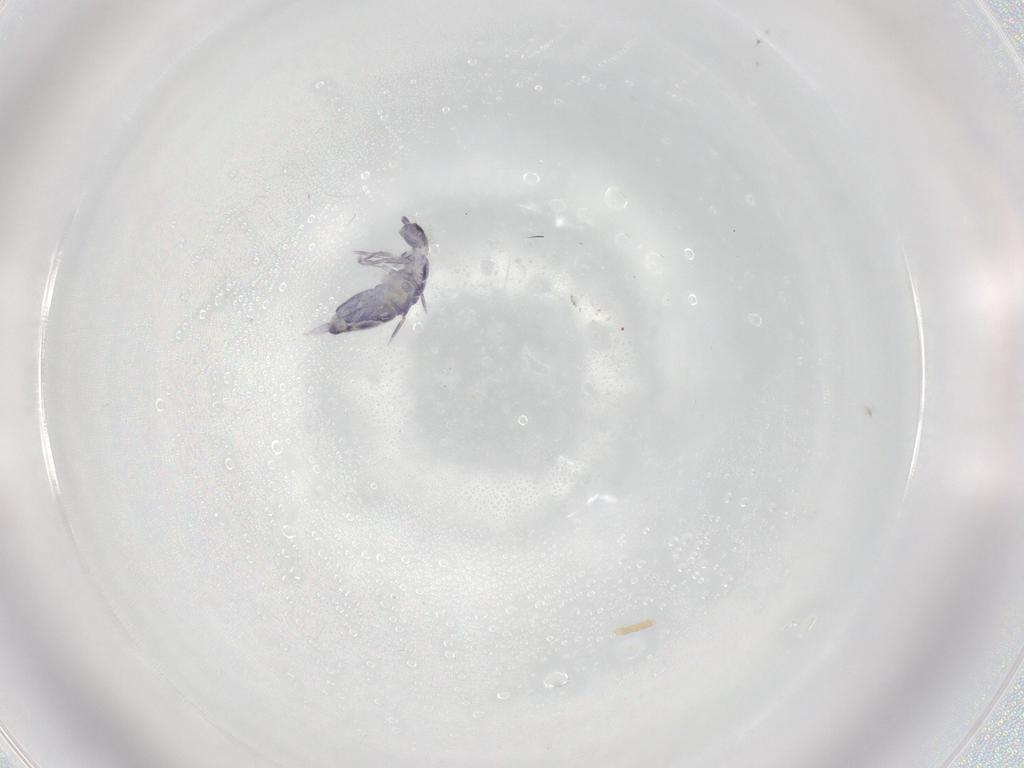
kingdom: Animalia
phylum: Arthropoda
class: Collembola
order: Entomobryomorpha
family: Entomobryidae
